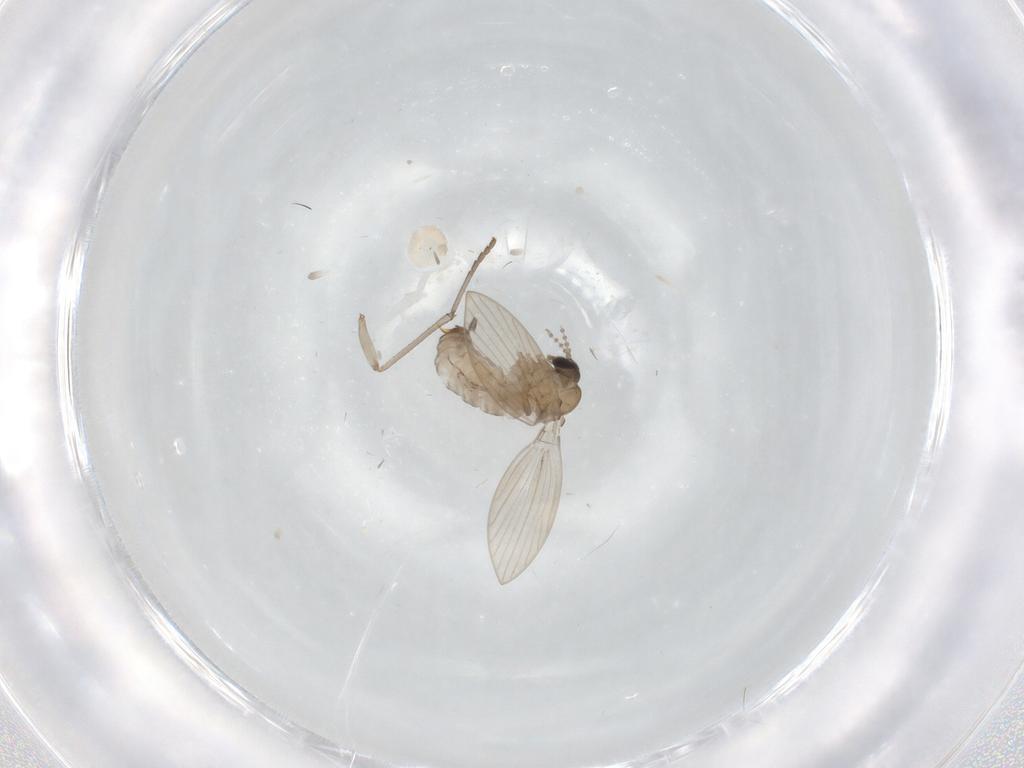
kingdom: Animalia
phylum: Arthropoda
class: Insecta
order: Diptera
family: Psychodidae
